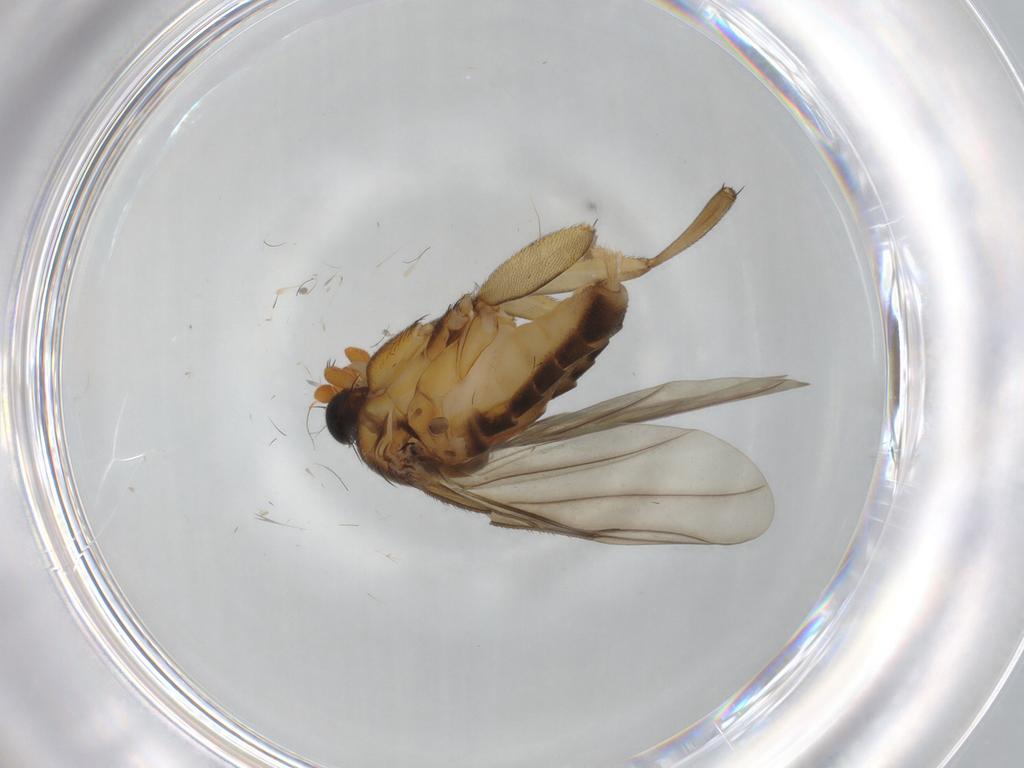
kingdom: Animalia
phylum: Arthropoda
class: Insecta
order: Diptera
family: Phoridae
